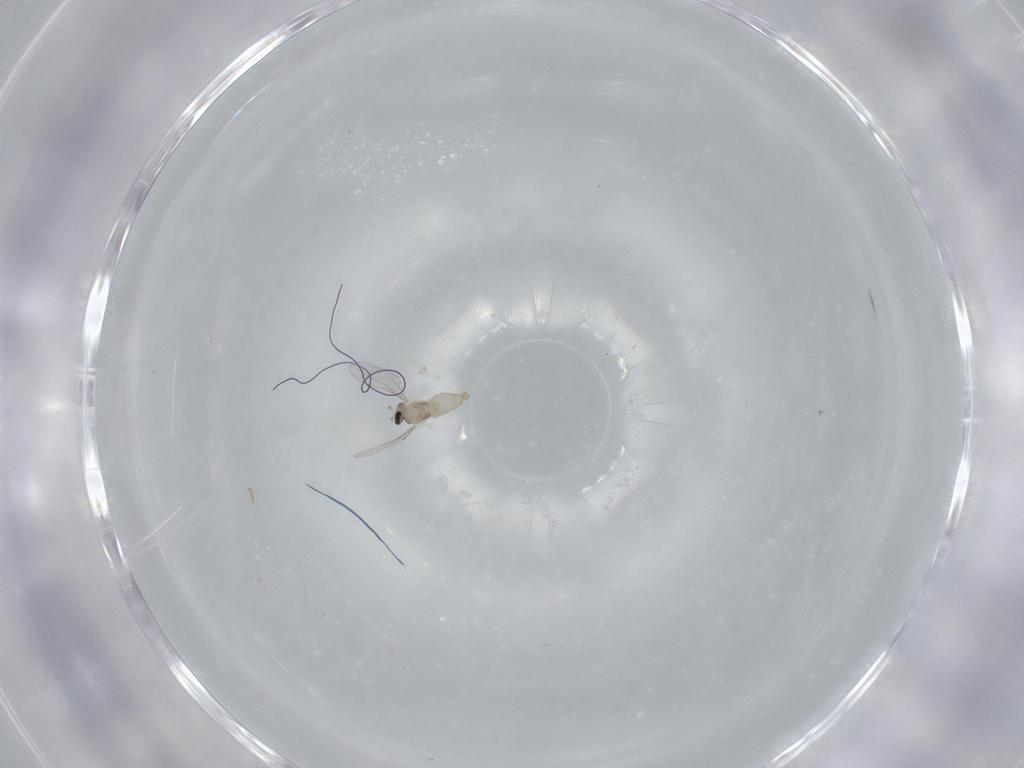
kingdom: Animalia
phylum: Arthropoda
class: Insecta
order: Diptera
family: Cecidomyiidae
